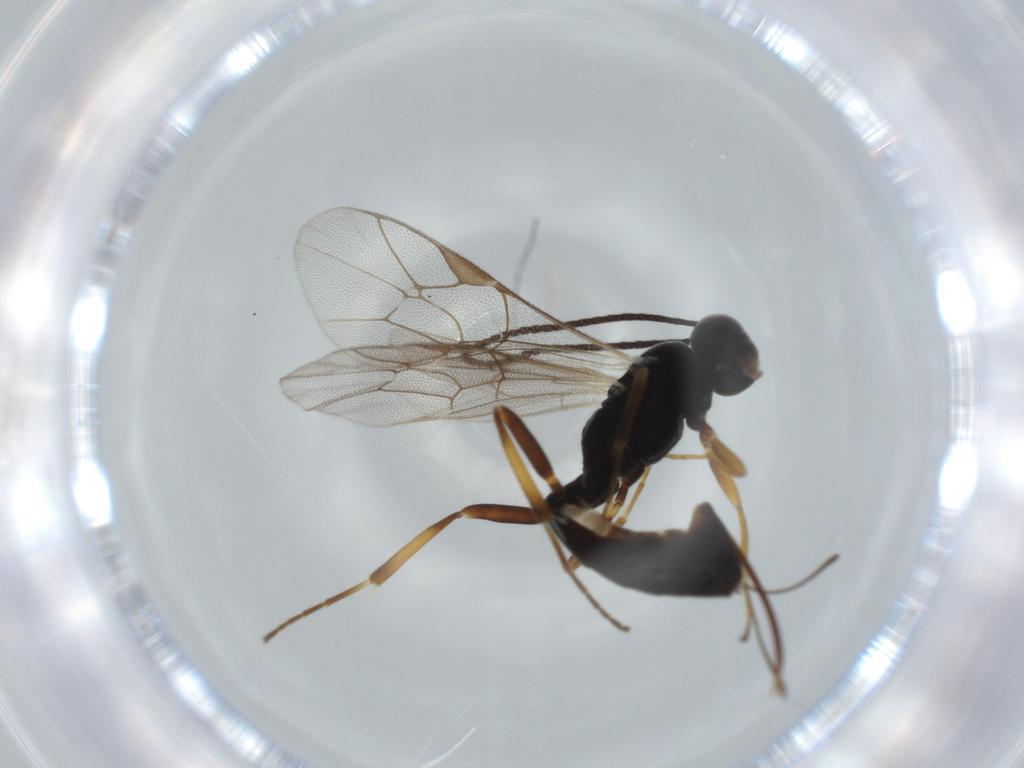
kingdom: Animalia
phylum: Arthropoda
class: Insecta
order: Hymenoptera
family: Ichneumonidae
